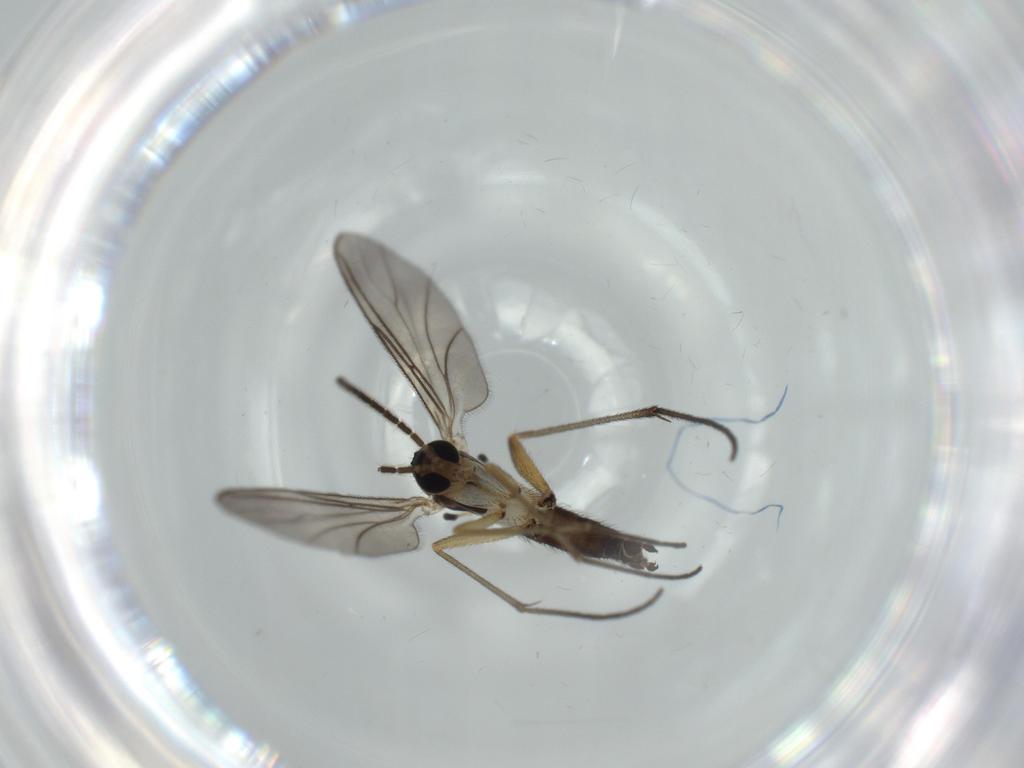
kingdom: Animalia
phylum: Arthropoda
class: Insecta
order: Diptera
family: Sciaridae
